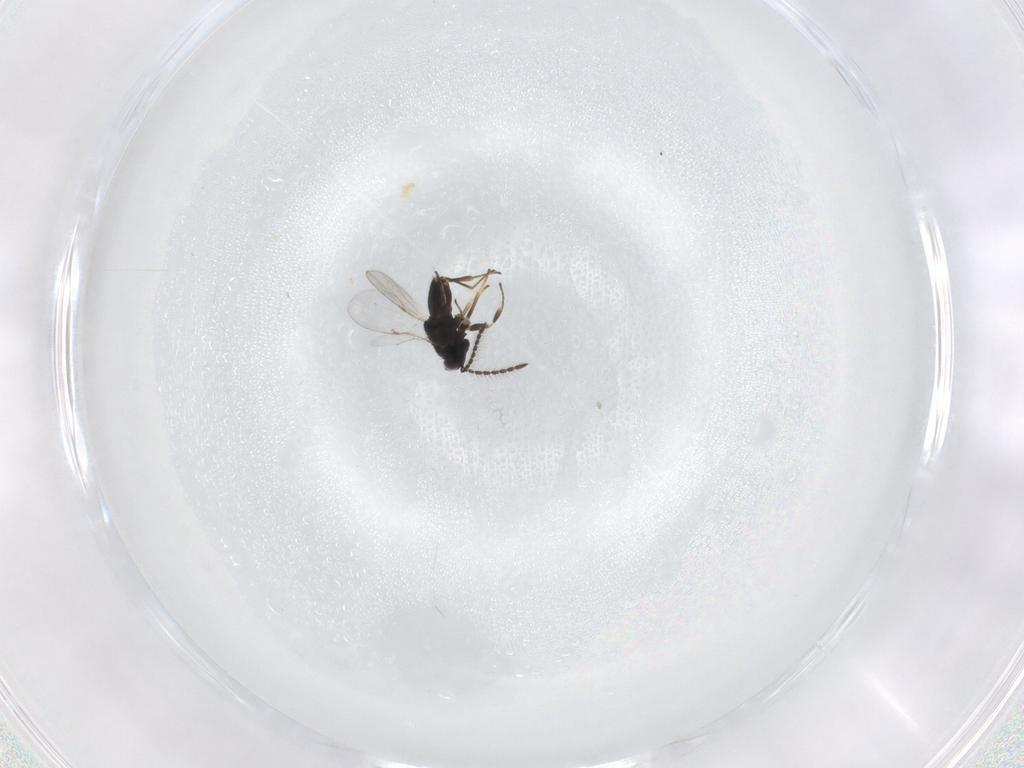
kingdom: Animalia
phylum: Arthropoda
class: Insecta
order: Hymenoptera
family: Encyrtidae
